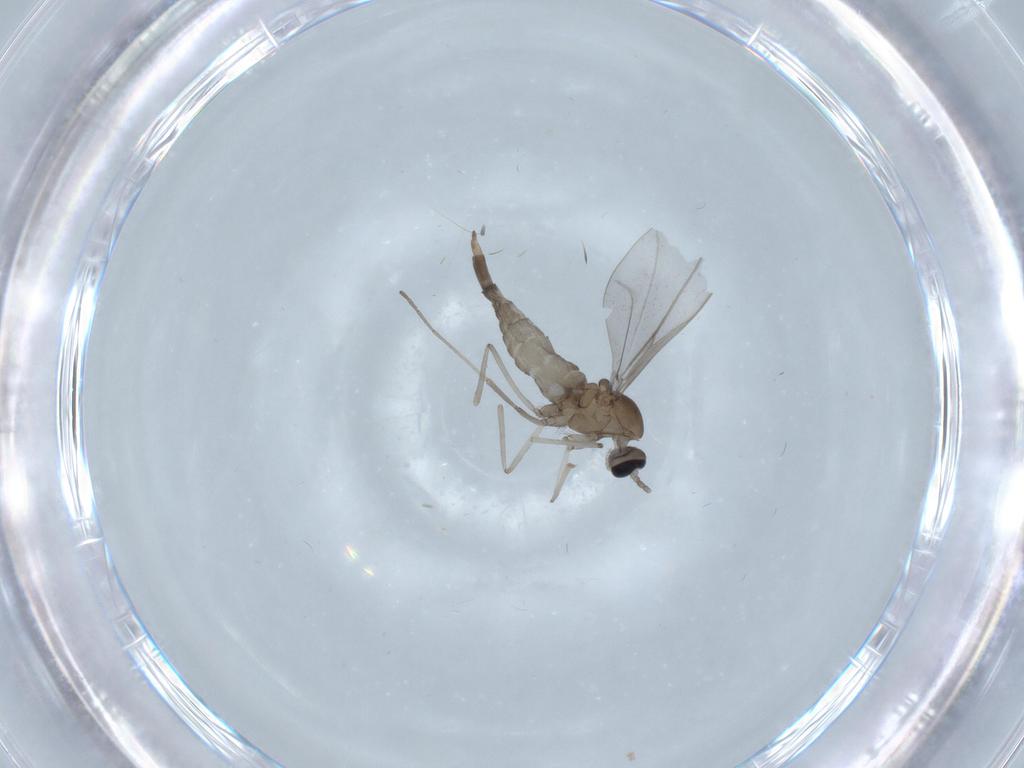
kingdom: Animalia
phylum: Arthropoda
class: Insecta
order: Diptera
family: Cecidomyiidae
